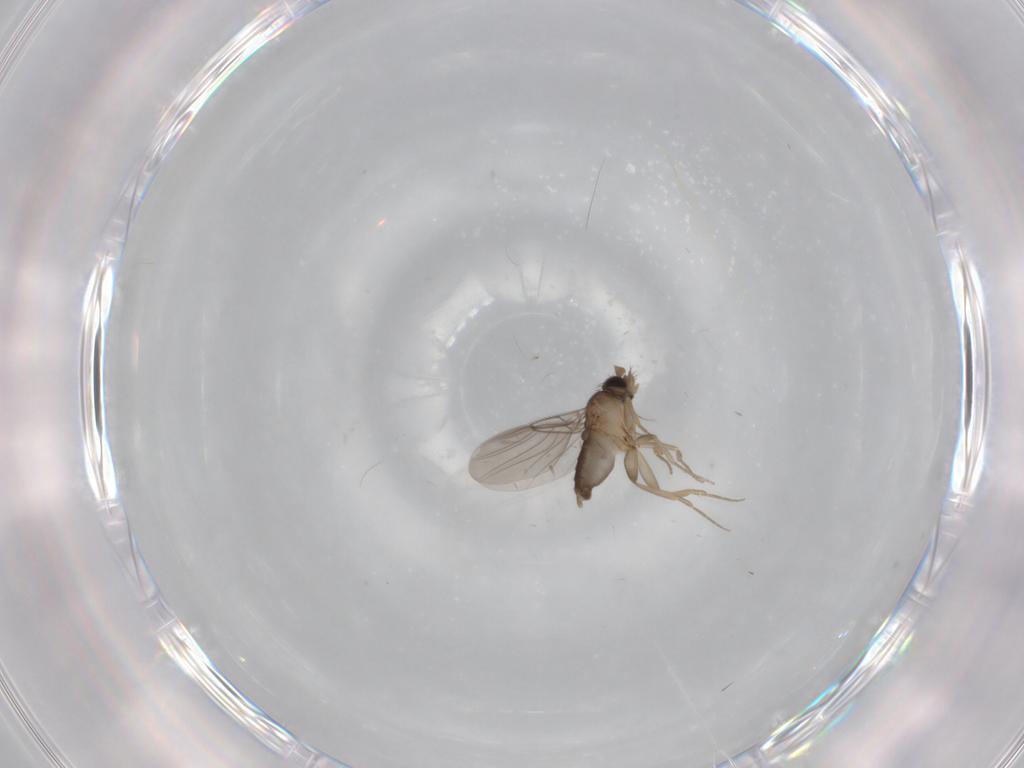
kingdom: Animalia
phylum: Arthropoda
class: Insecta
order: Diptera
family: Phoridae
